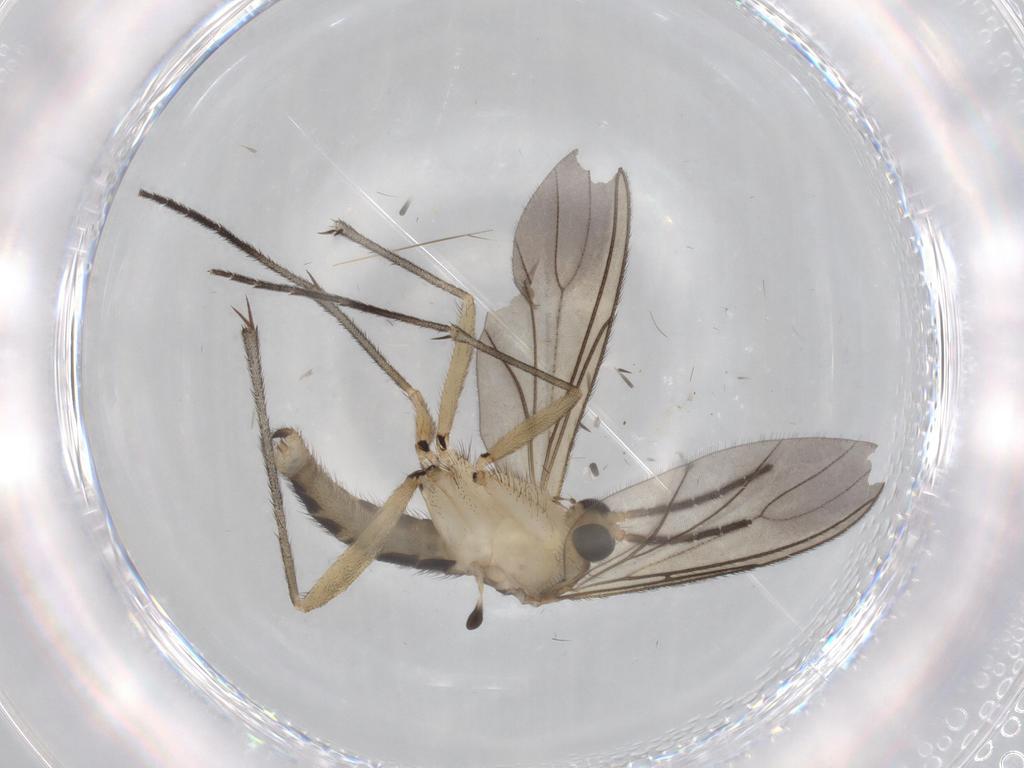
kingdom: Animalia
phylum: Arthropoda
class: Insecta
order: Diptera
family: Sciaridae
